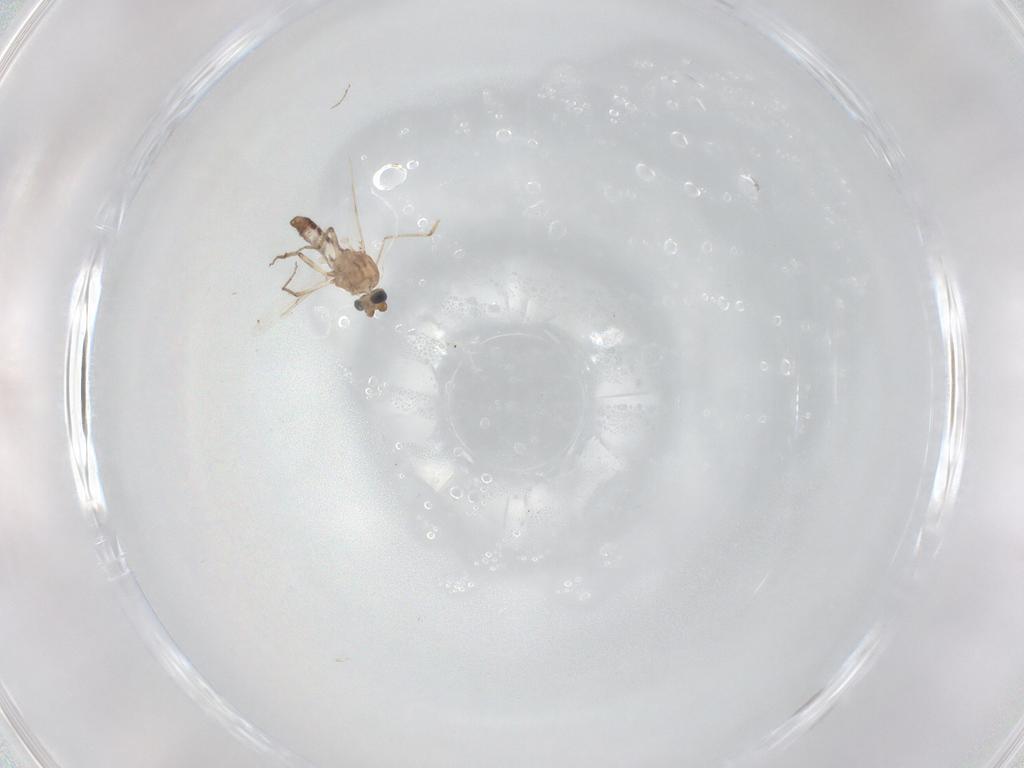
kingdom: Animalia
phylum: Arthropoda
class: Insecta
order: Diptera
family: Ceratopogonidae
